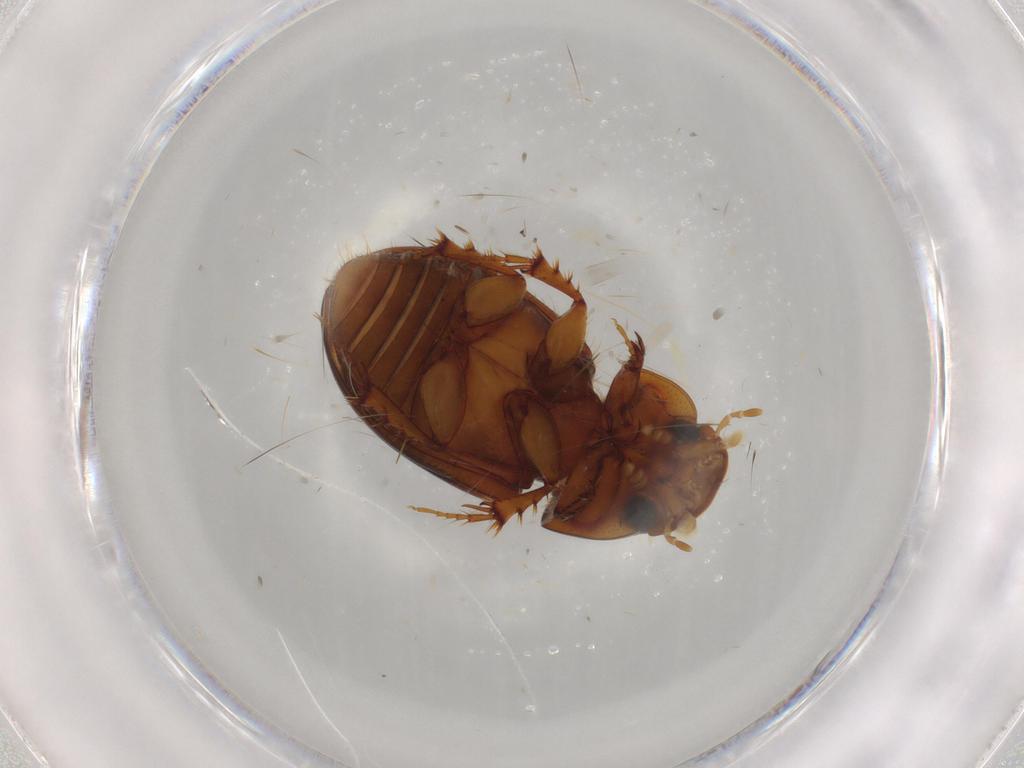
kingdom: Animalia
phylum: Arthropoda
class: Insecta
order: Coleoptera
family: Scarabaeidae
